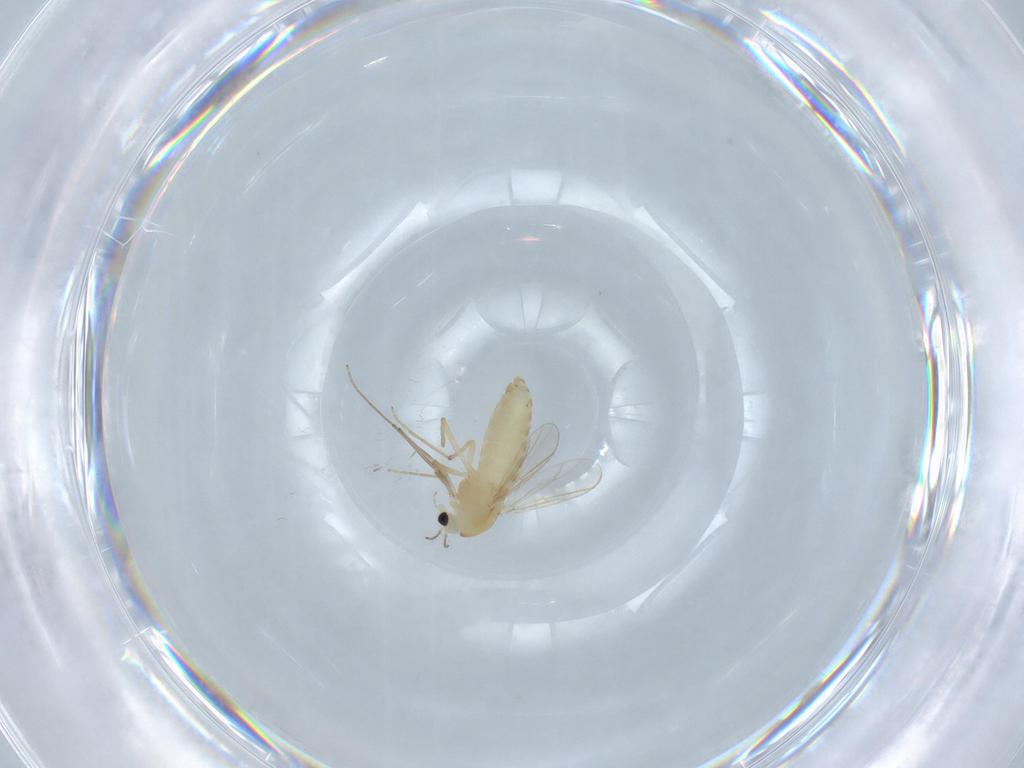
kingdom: Animalia
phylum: Arthropoda
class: Insecta
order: Diptera
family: Chironomidae
